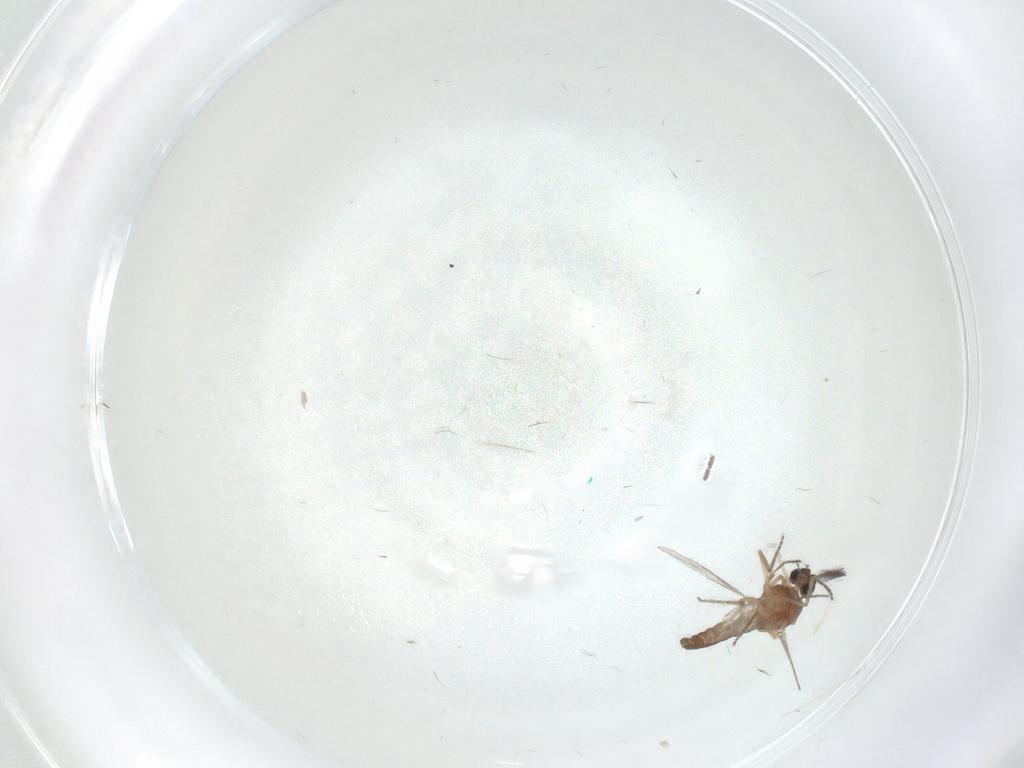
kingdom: Animalia
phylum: Arthropoda
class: Insecta
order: Diptera
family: Ceratopogonidae
